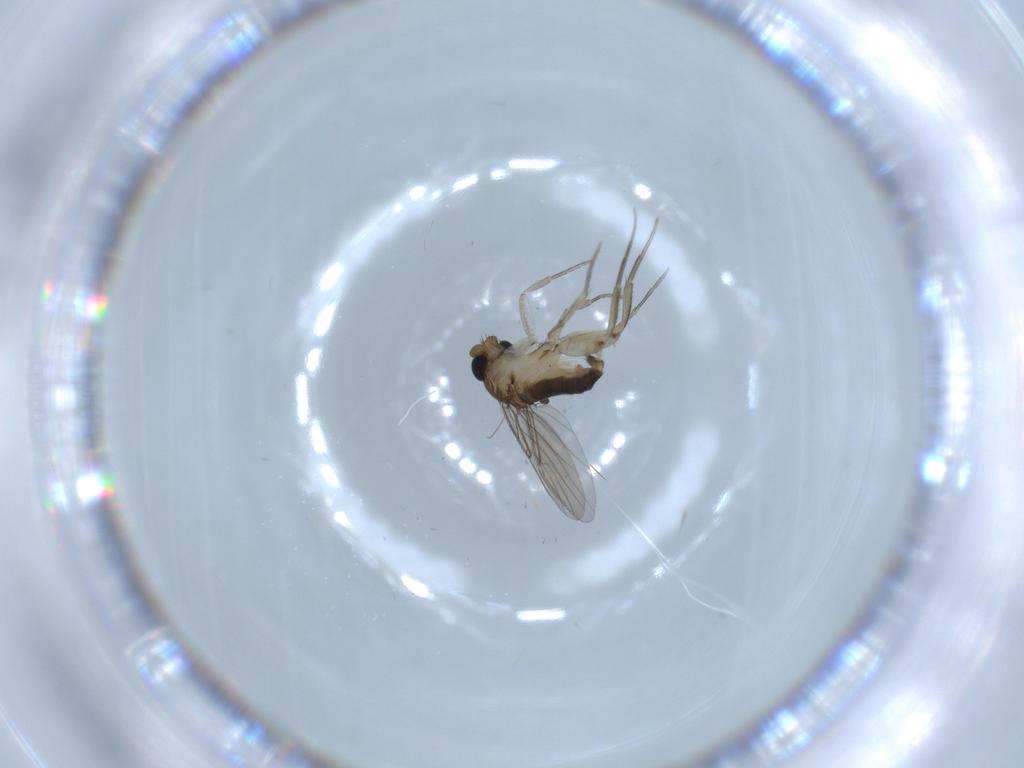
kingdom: Animalia
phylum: Arthropoda
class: Insecta
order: Diptera
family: Phoridae
